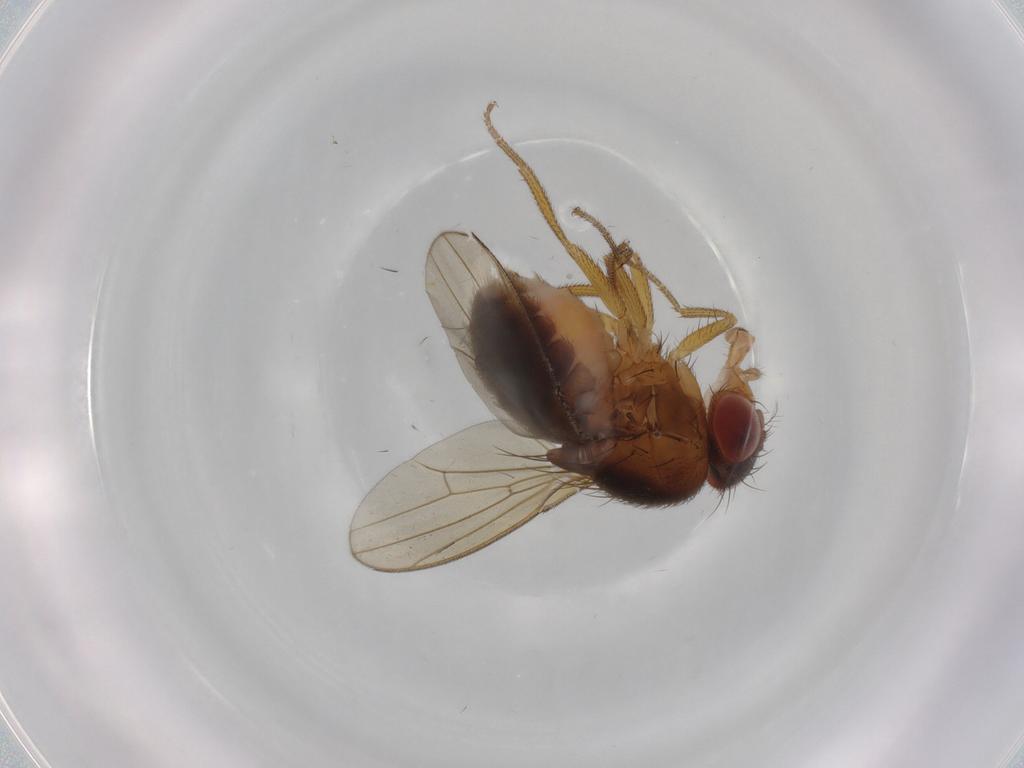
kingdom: Animalia
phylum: Arthropoda
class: Insecta
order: Diptera
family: Drosophilidae
